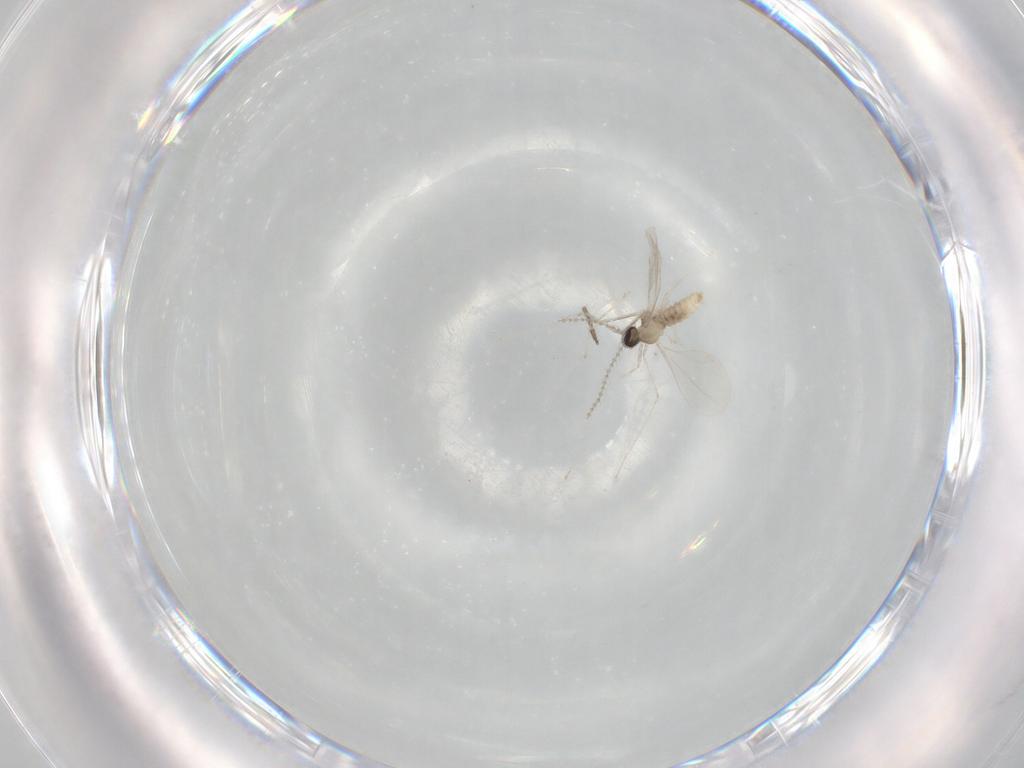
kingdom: Animalia
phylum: Arthropoda
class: Insecta
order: Diptera
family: Cecidomyiidae
